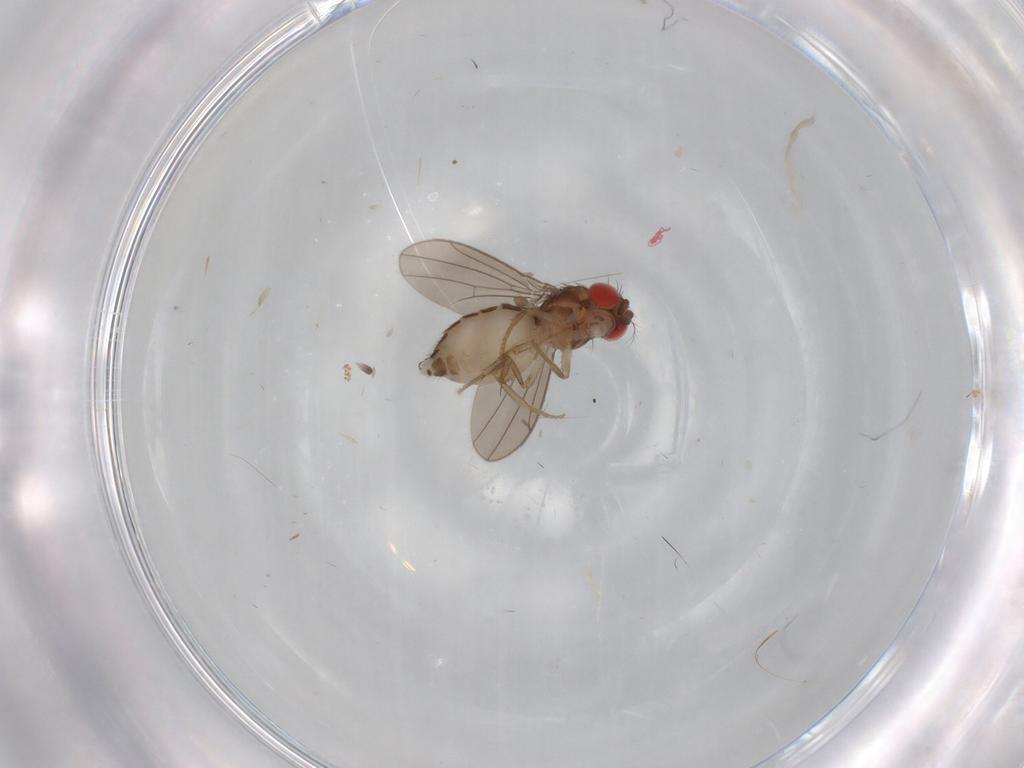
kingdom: Animalia
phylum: Arthropoda
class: Insecta
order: Diptera
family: Drosophilidae
